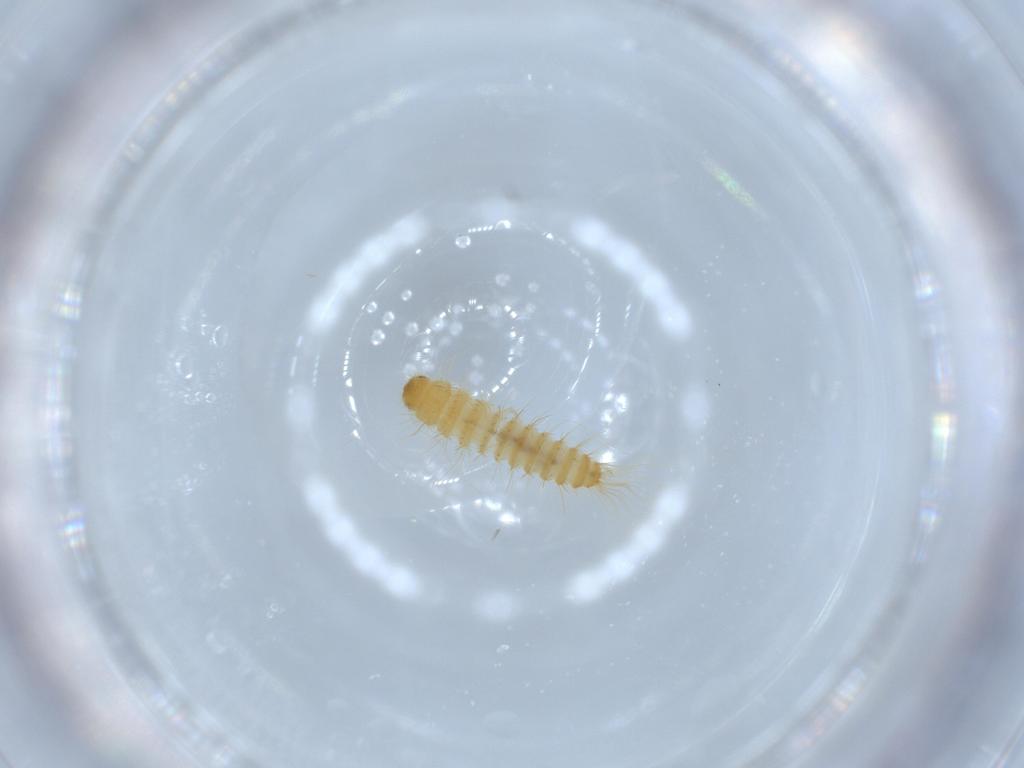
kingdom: Animalia
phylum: Arthropoda
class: Insecta
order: Coleoptera
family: Dermestidae
